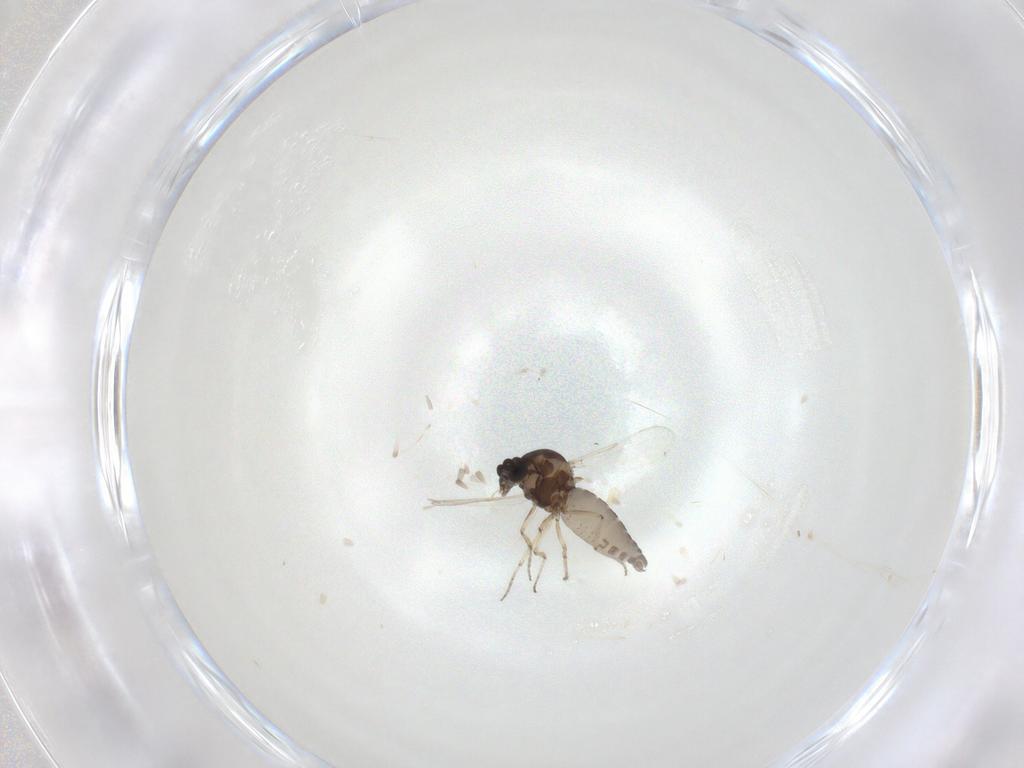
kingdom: Animalia
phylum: Arthropoda
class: Insecta
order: Diptera
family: Ceratopogonidae
